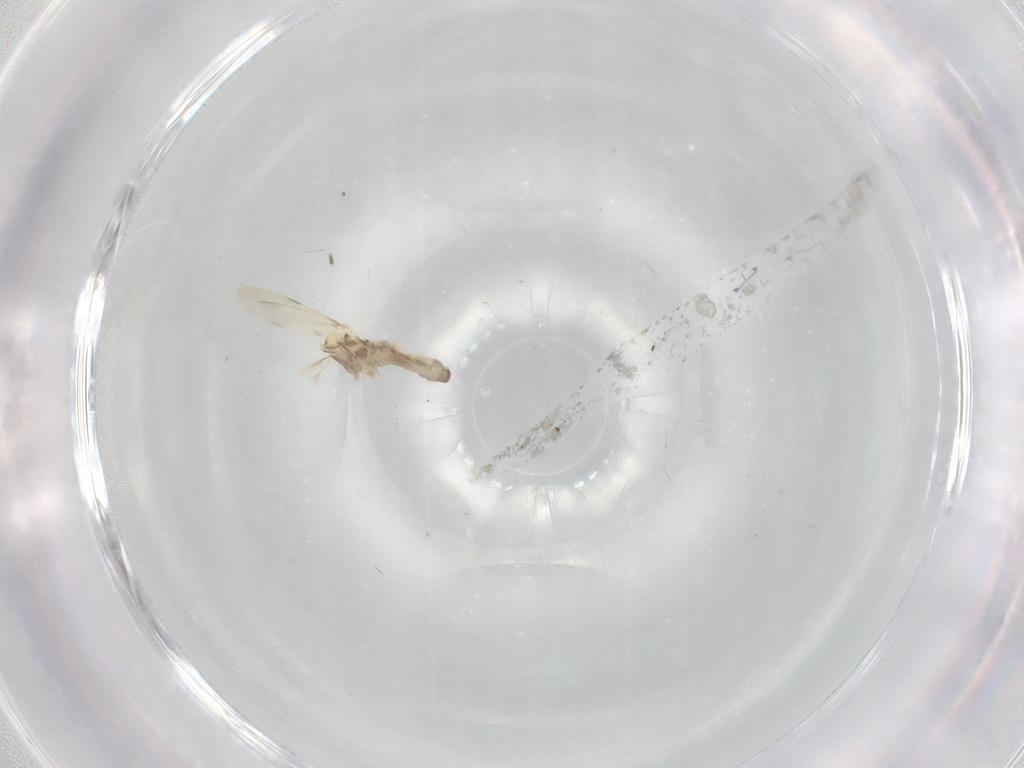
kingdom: Animalia
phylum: Arthropoda
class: Insecta
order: Diptera
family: Cecidomyiidae
